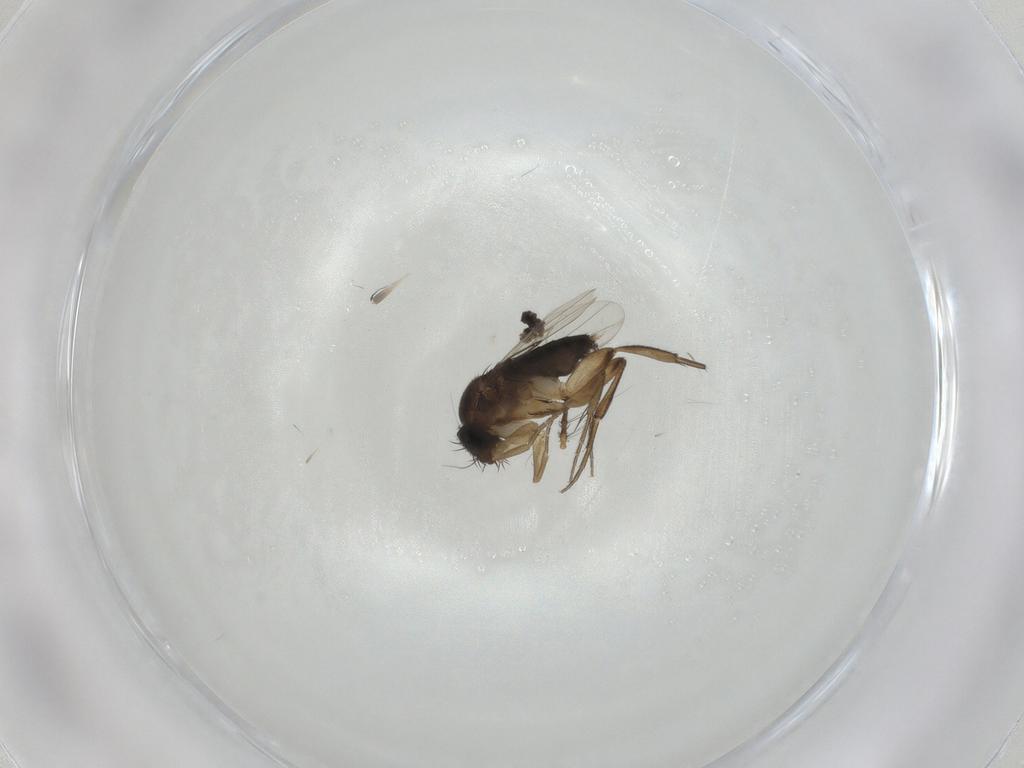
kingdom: Animalia
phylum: Arthropoda
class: Insecta
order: Diptera
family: Phoridae
